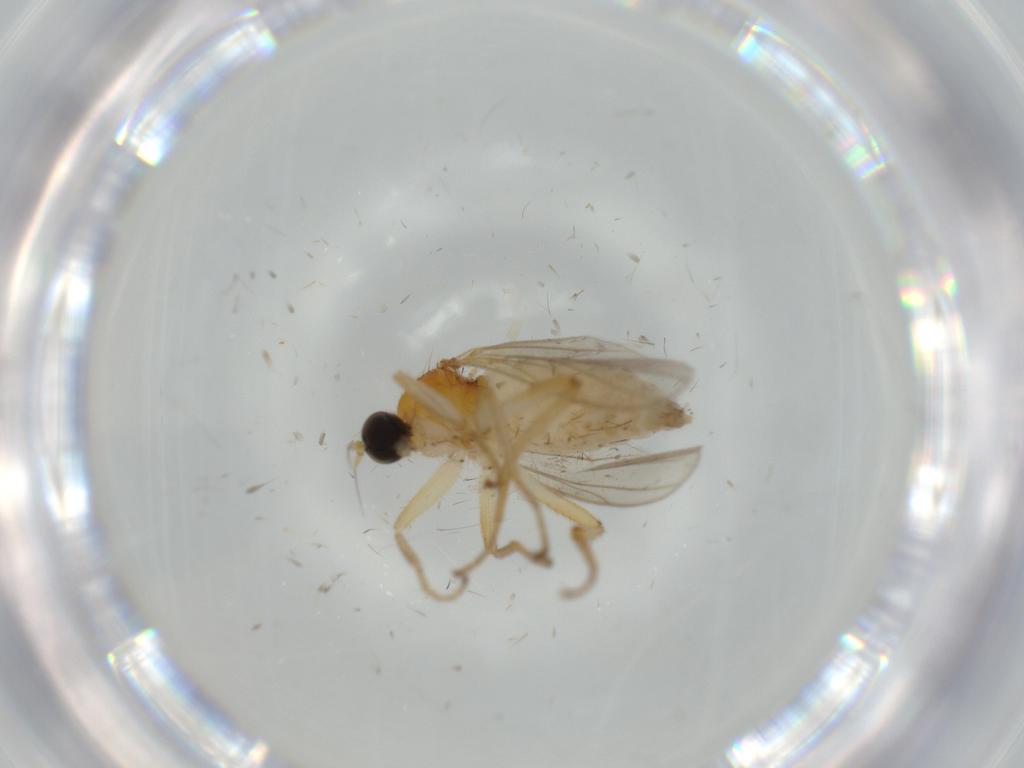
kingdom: Animalia
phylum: Arthropoda
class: Insecta
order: Diptera
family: Hybotidae
